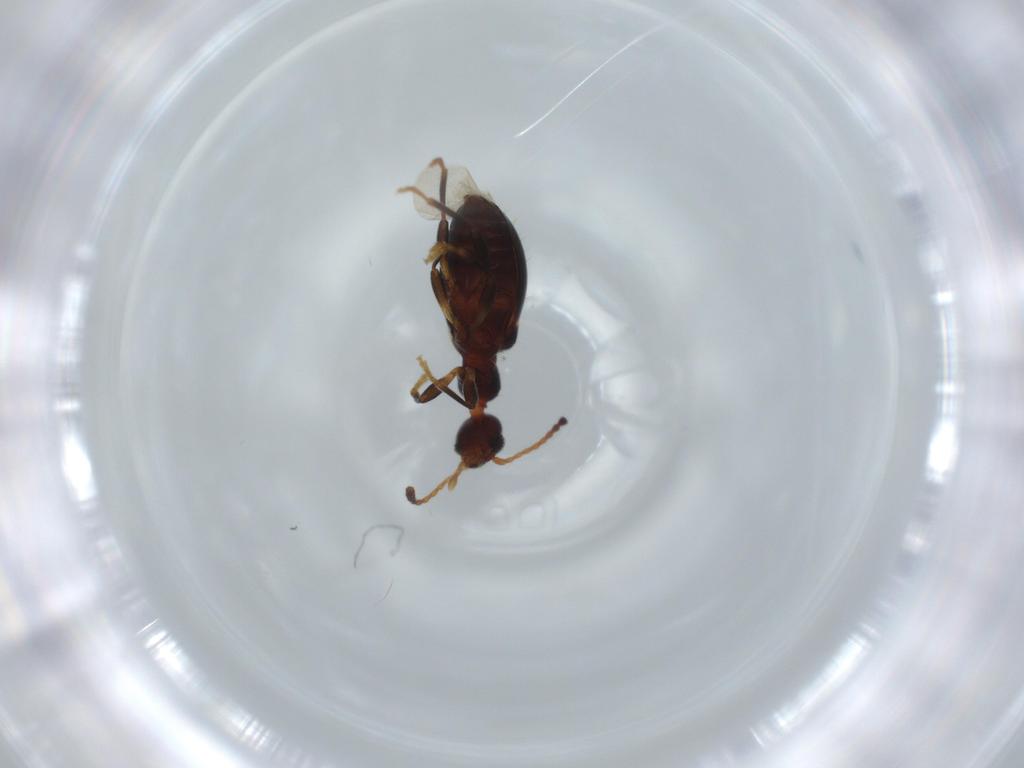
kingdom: Animalia
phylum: Arthropoda
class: Insecta
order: Coleoptera
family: Anthicidae
